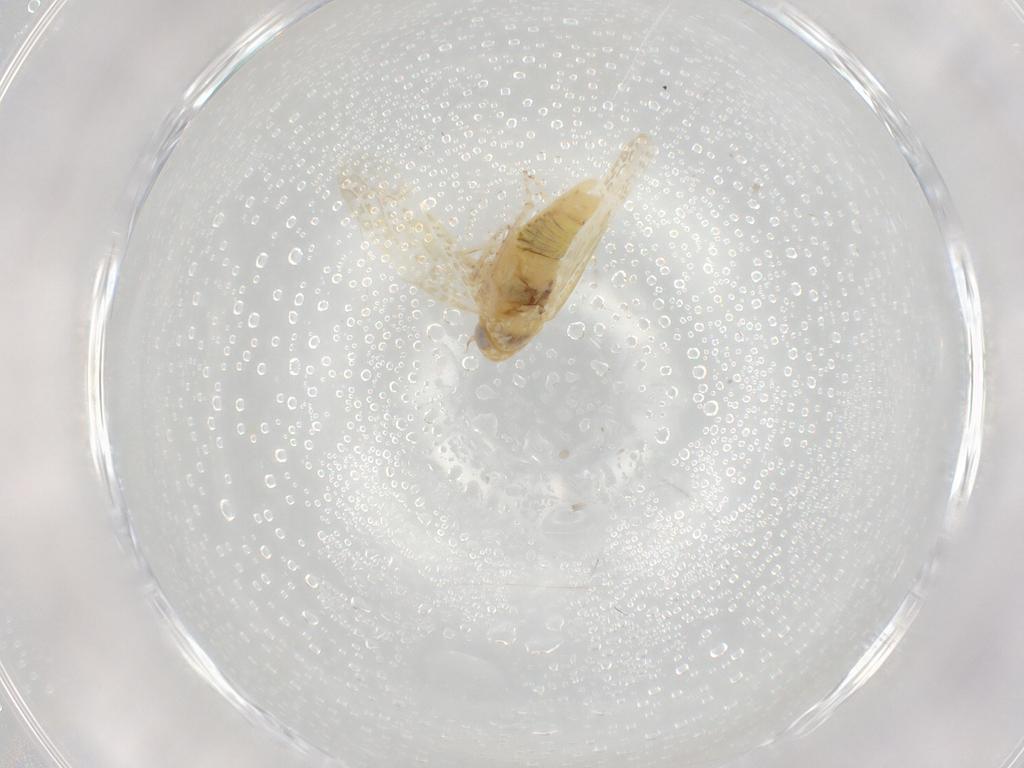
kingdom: Animalia
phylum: Arthropoda
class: Insecta
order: Hemiptera
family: Cicadellidae
